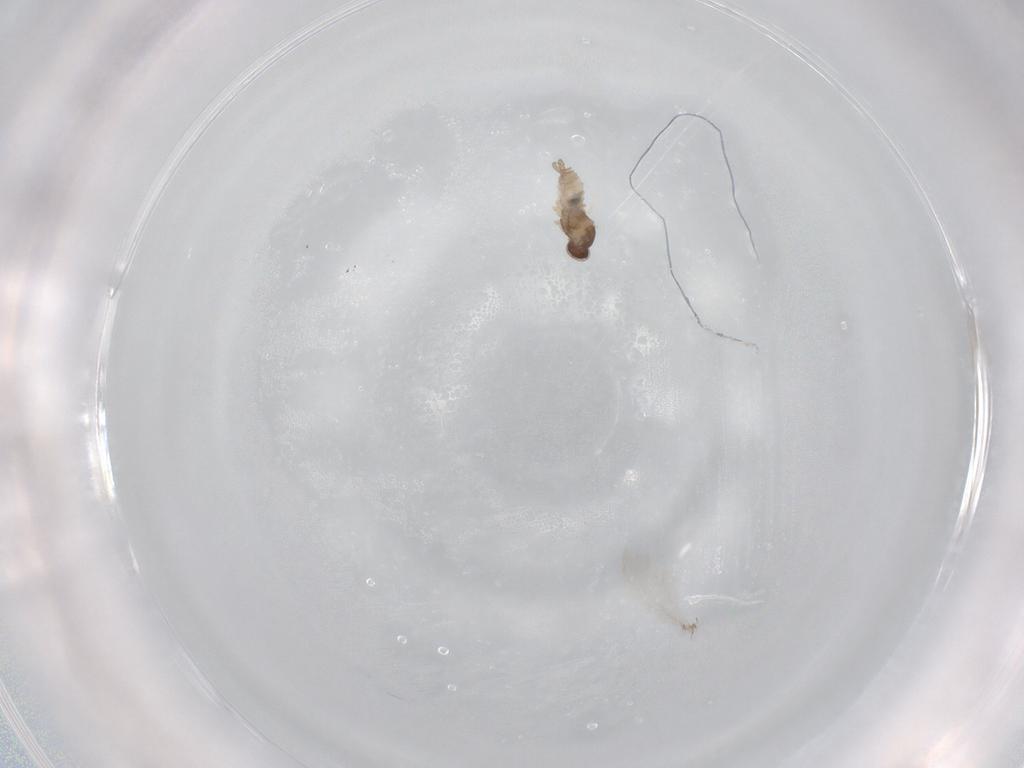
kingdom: Animalia
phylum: Arthropoda
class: Insecta
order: Diptera
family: Cecidomyiidae
